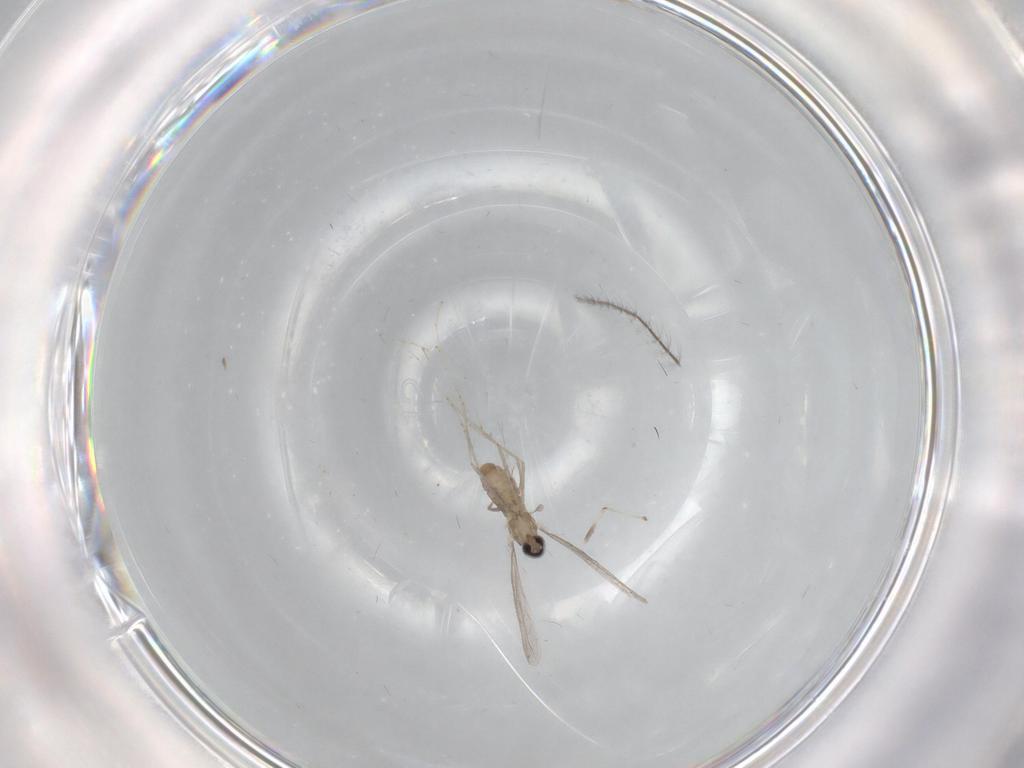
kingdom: Animalia
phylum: Arthropoda
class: Insecta
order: Diptera
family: Cecidomyiidae
